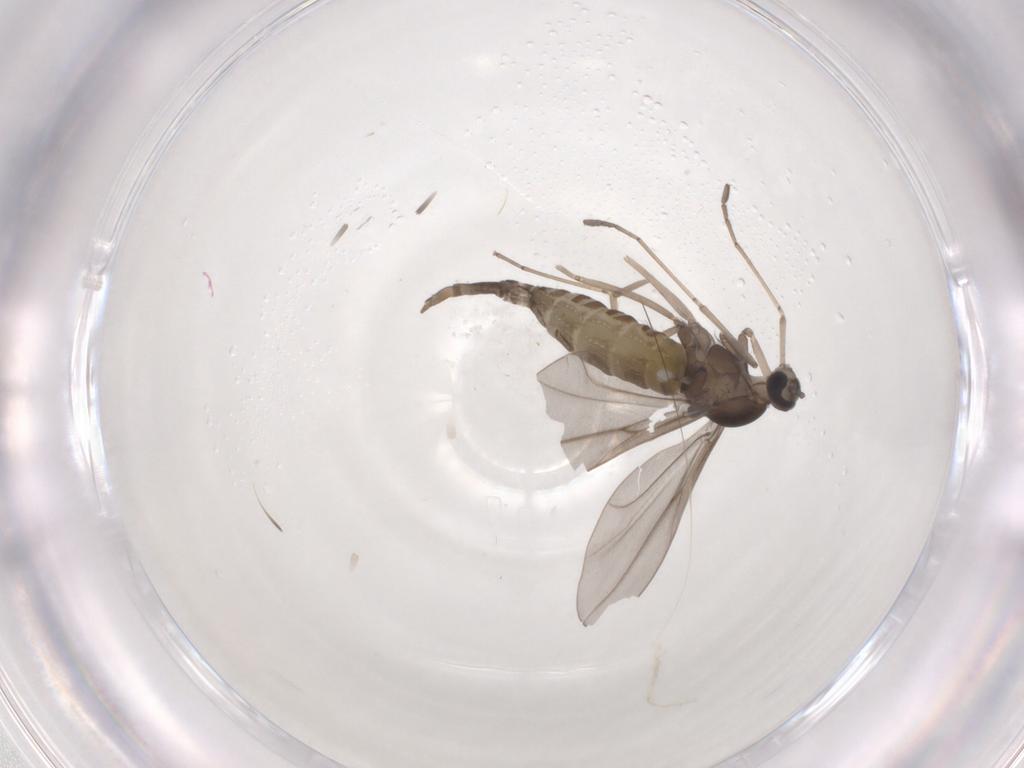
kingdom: Animalia
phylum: Arthropoda
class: Insecta
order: Diptera
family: Cecidomyiidae
